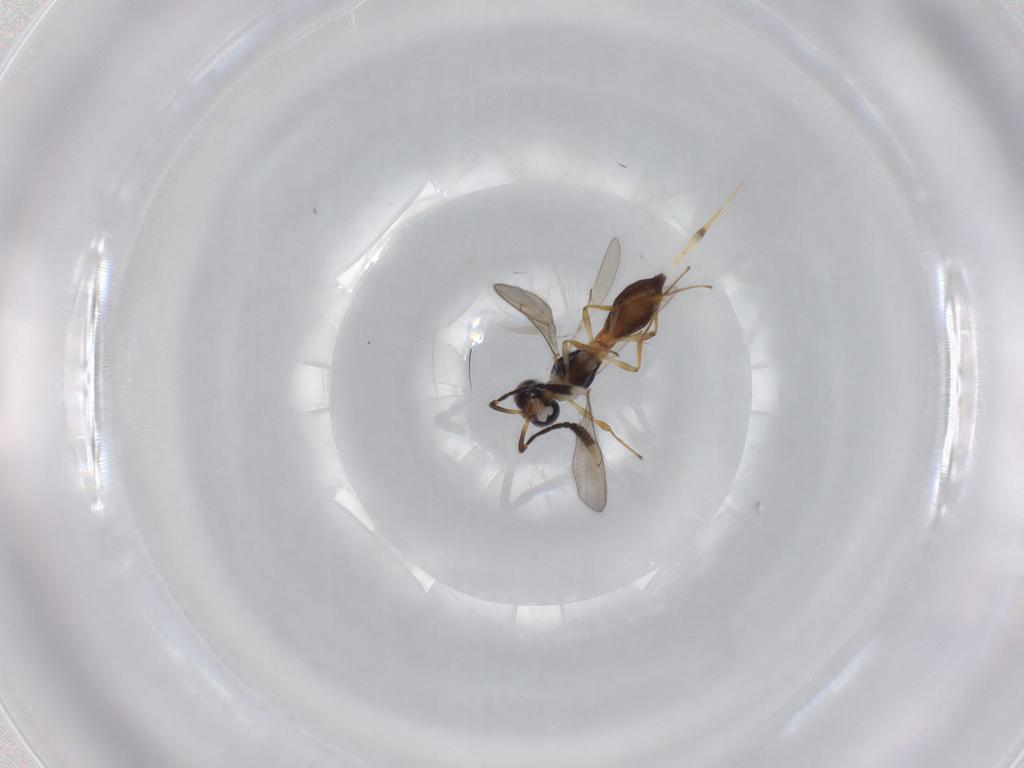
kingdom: Animalia
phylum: Arthropoda
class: Insecta
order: Hymenoptera
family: Scelionidae
